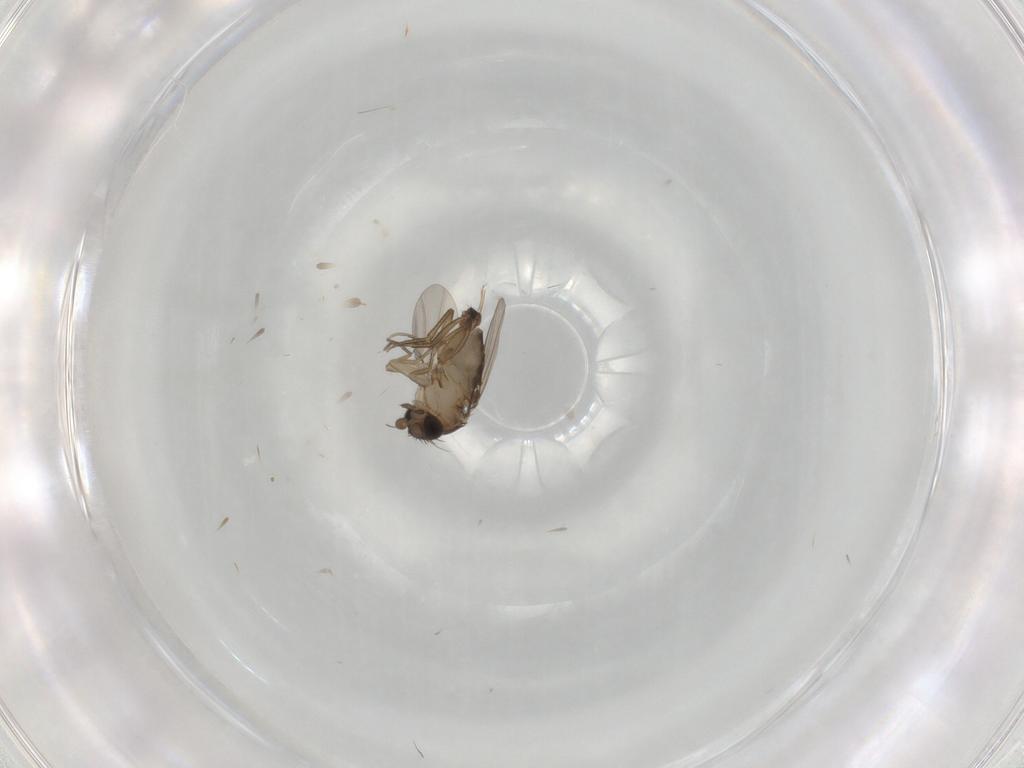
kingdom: Animalia
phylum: Arthropoda
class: Insecta
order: Diptera
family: Phoridae
